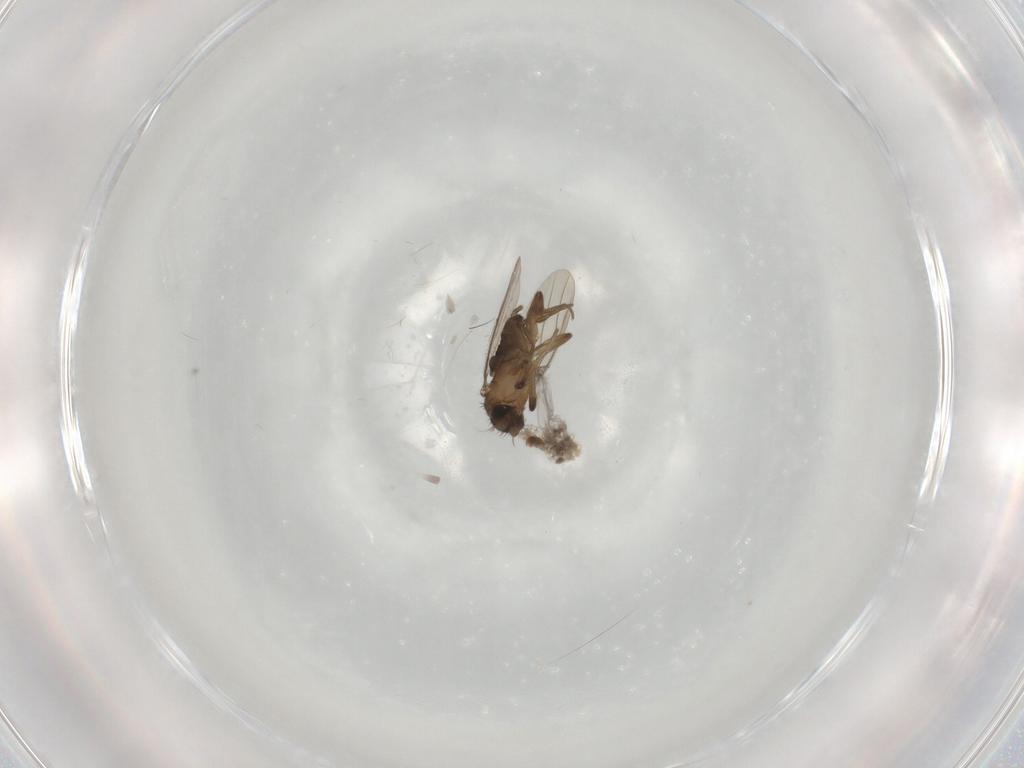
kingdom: Animalia
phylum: Arthropoda
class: Insecta
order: Diptera
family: Phoridae
